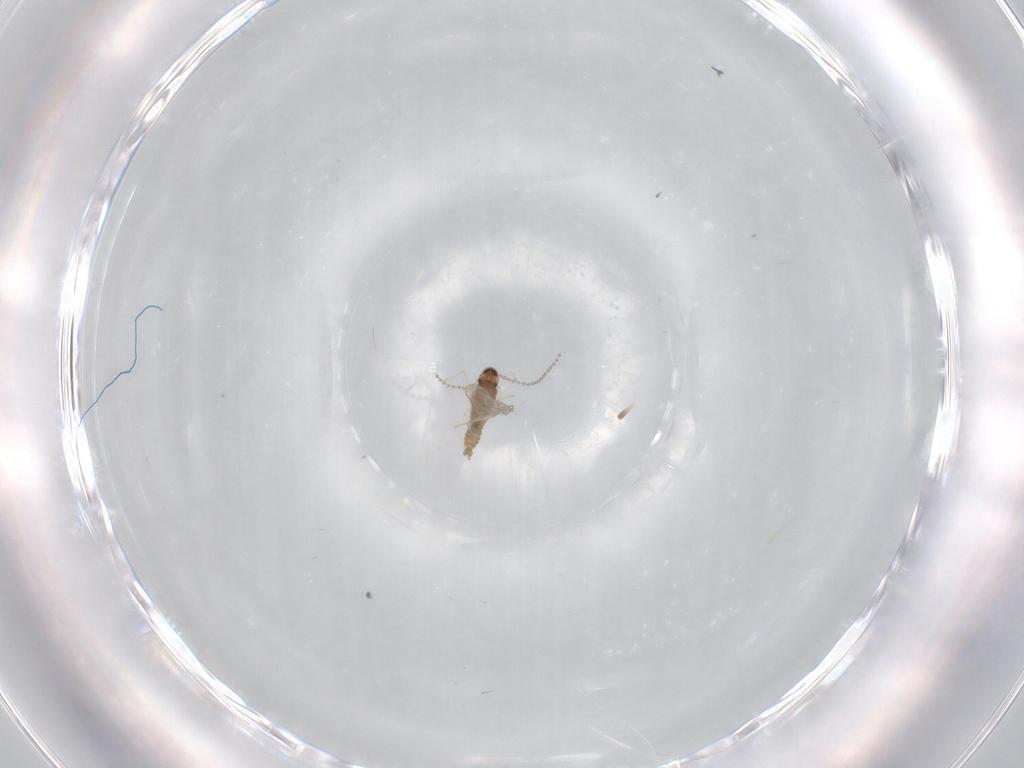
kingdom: Animalia
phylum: Arthropoda
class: Insecta
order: Diptera
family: Cecidomyiidae
